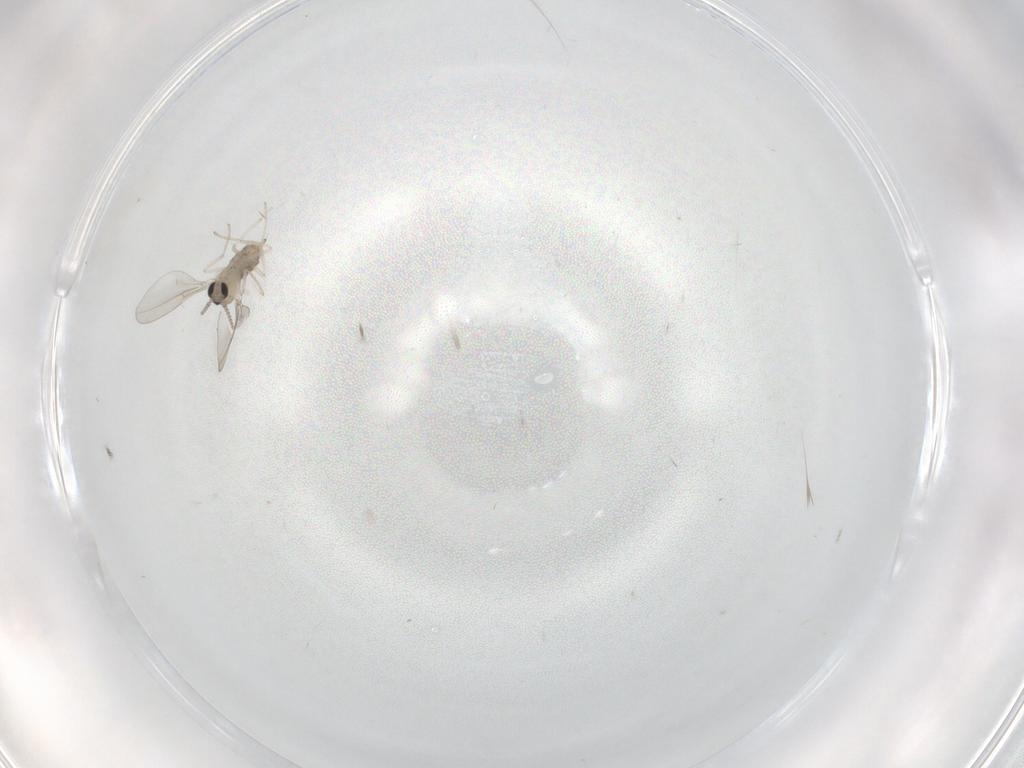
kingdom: Animalia
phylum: Arthropoda
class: Insecta
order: Diptera
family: Cecidomyiidae
